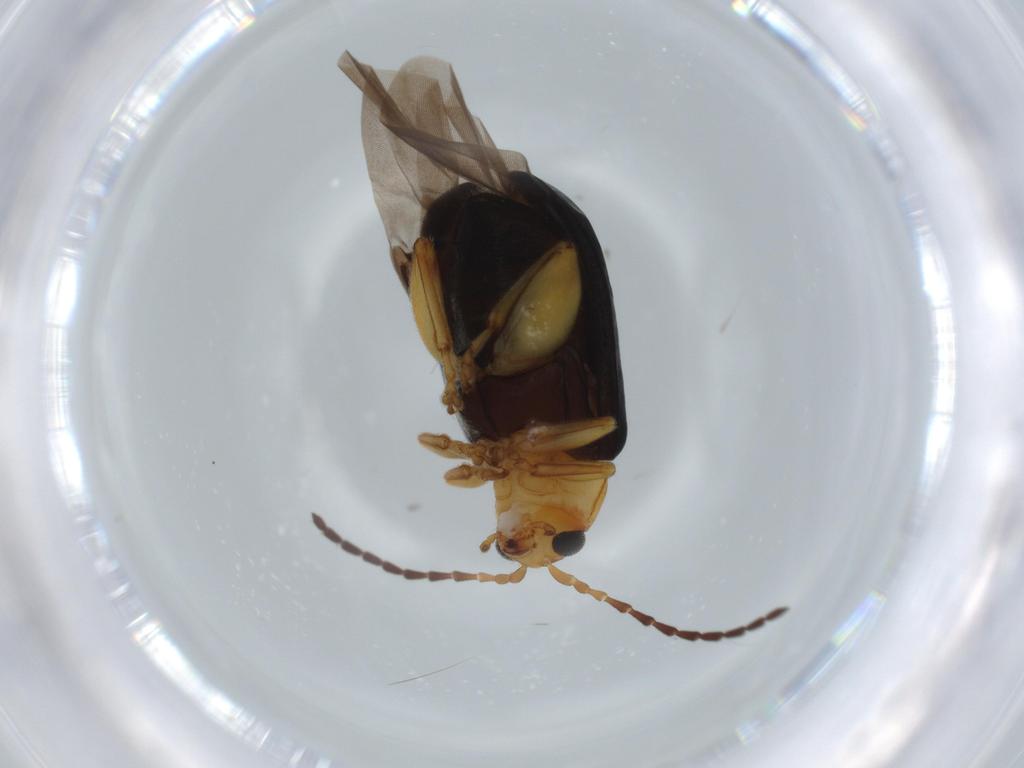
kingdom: Animalia
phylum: Arthropoda
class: Insecta
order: Coleoptera
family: Chrysomelidae
